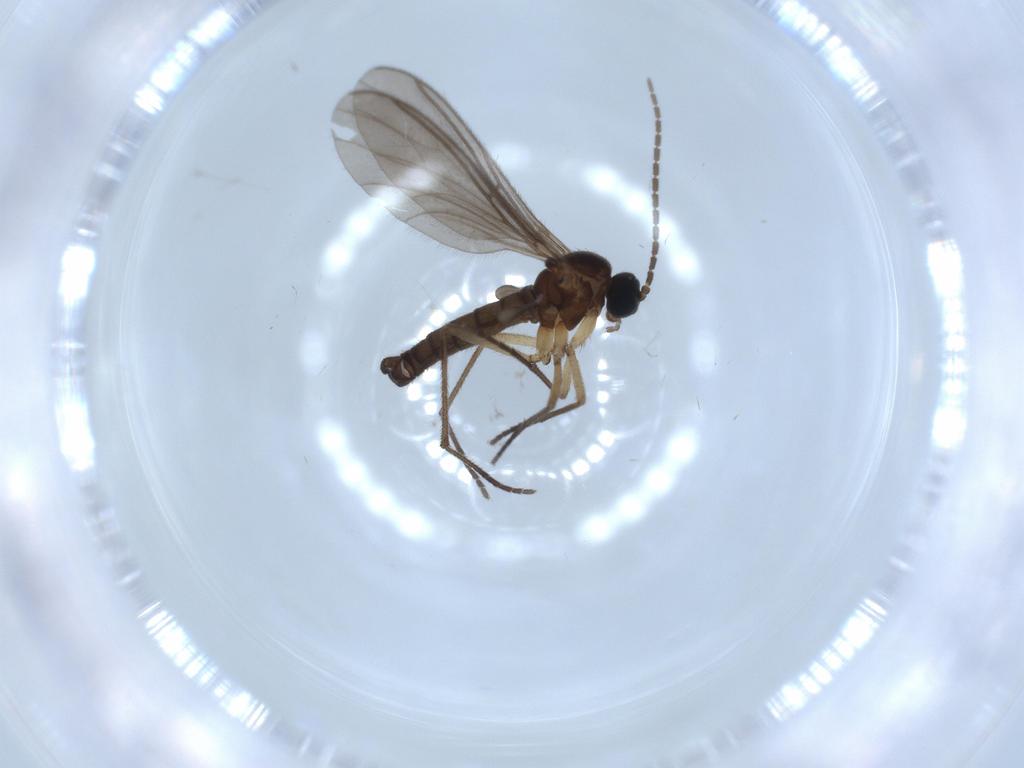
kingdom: Animalia
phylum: Arthropoda
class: Insecta
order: Diptera
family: Sciaridae
